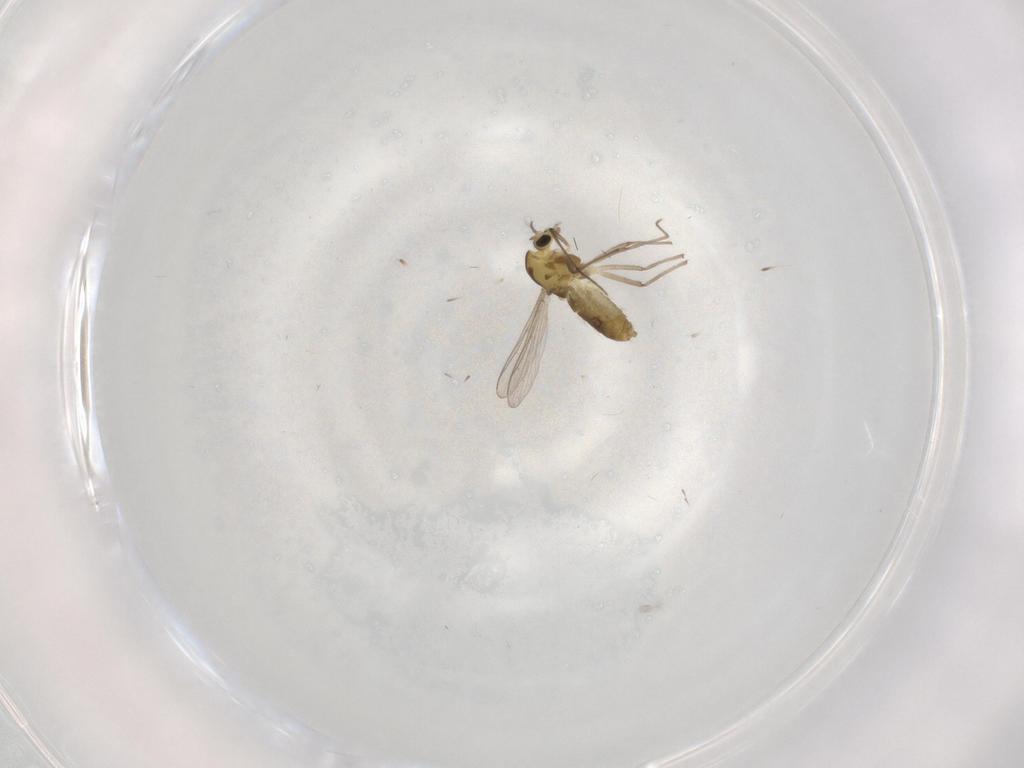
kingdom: Animalia
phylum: Arthropoda
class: Insecta
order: Diptera
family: Chironomidae
